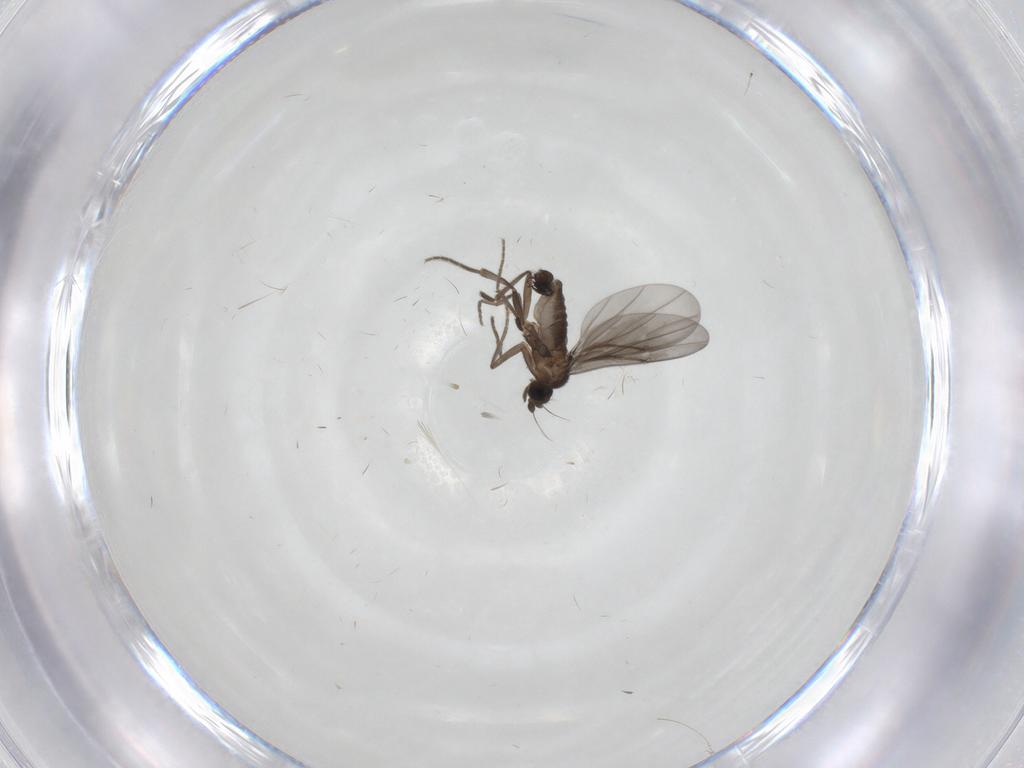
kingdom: Animalia
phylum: Arthropoda
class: Insecta
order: Diptera
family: Phoridae
